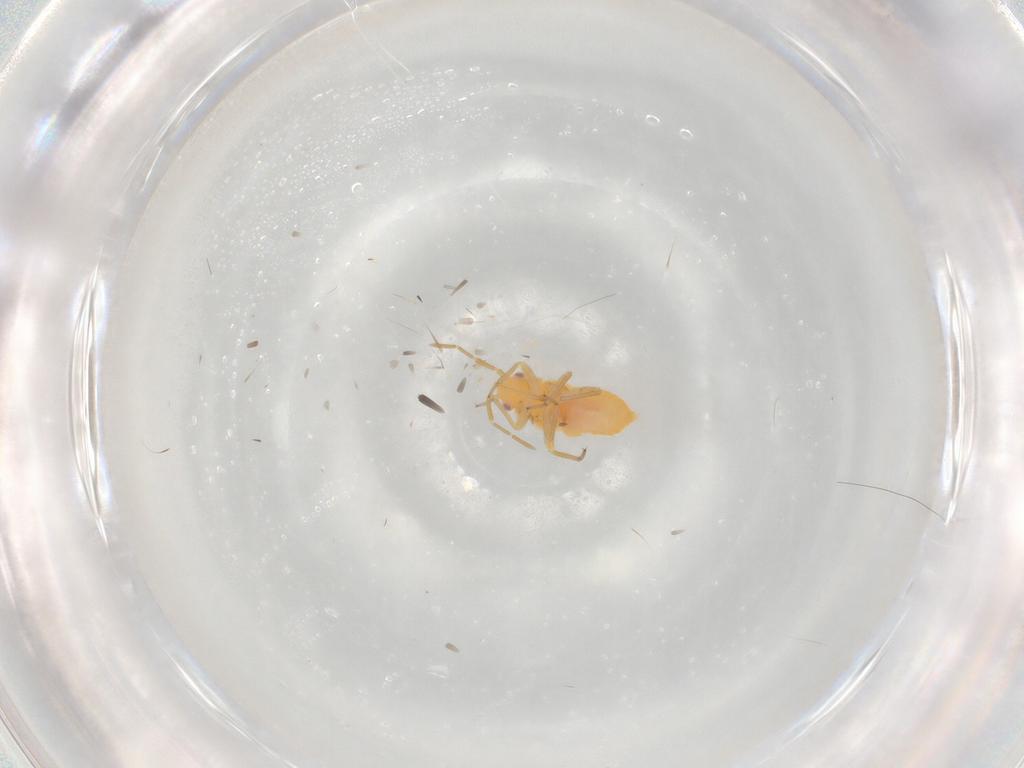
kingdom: Animalia
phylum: Arthropoda
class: Insecta
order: Hemiptera
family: Miridae
